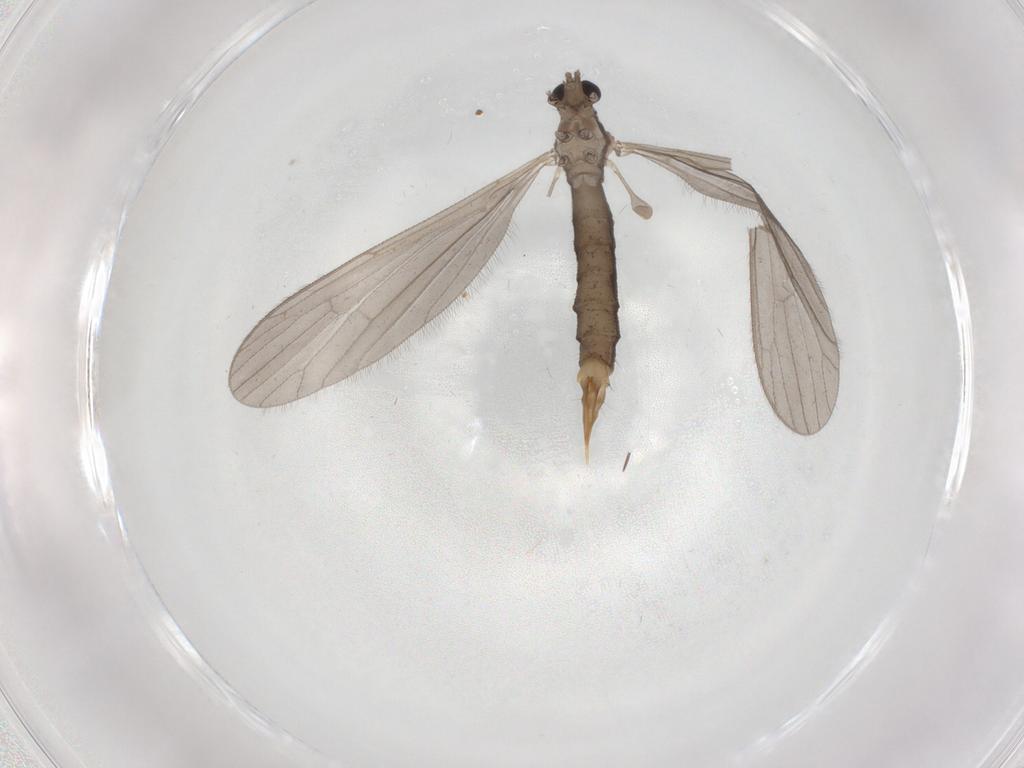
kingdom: Animalia
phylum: Arthropoda
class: Insecta
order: Diptera
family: Limoniidae
